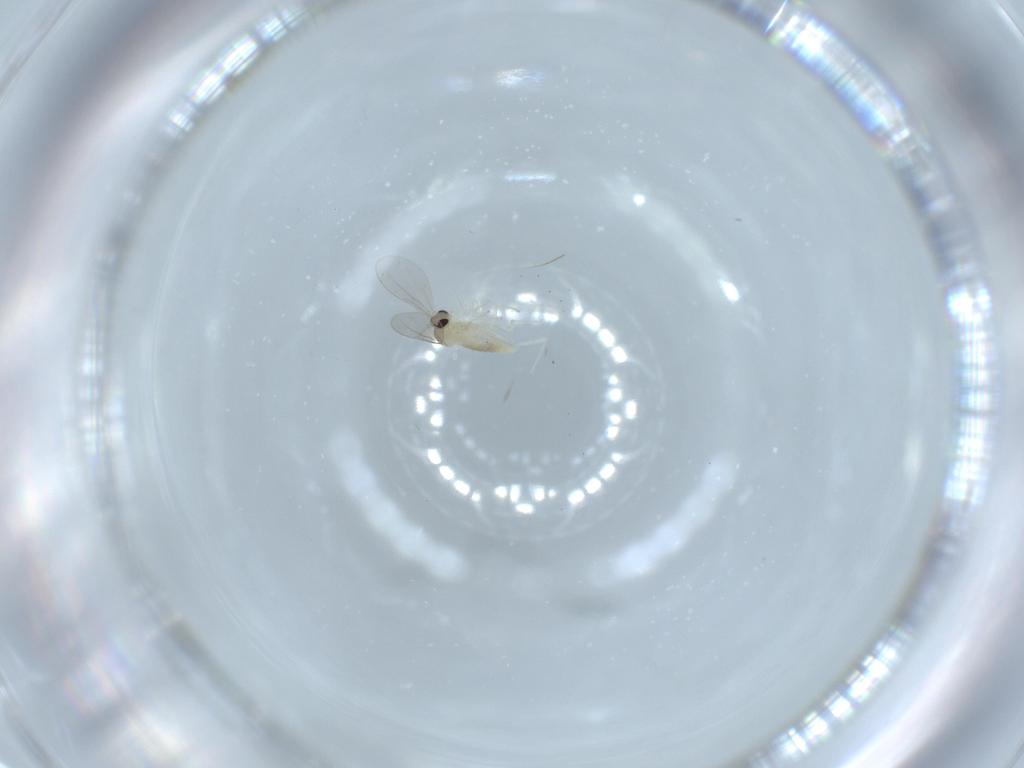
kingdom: Animalia
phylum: Arthropoda
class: Insecta
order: Diptera
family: Cecidomyiidae
